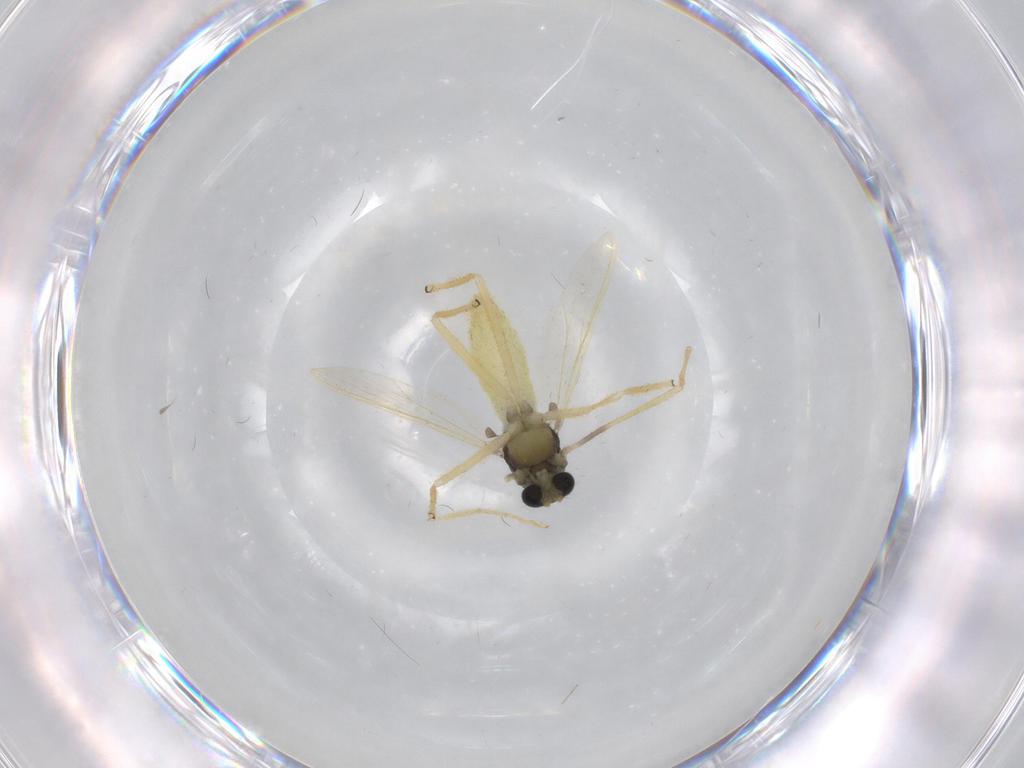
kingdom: Animalia
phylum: Arthropoda
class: Insecta
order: Diptera
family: Chironomidae
